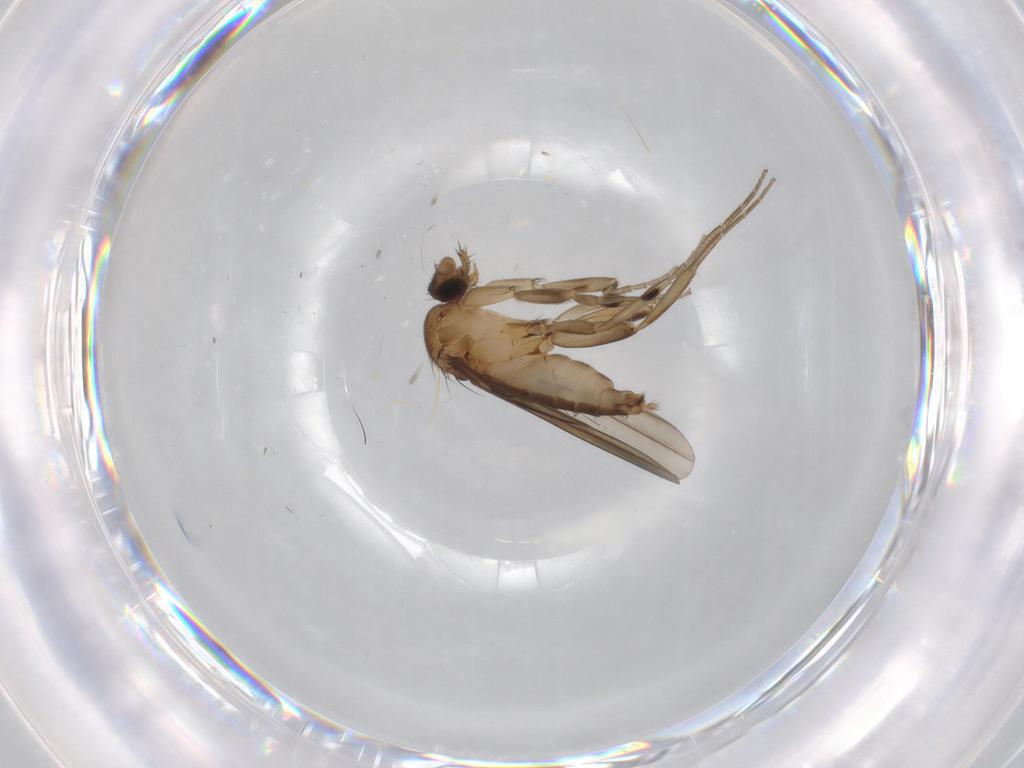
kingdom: Animalia
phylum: Arthropoda
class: Insecta
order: Diptera
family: Phoridae
